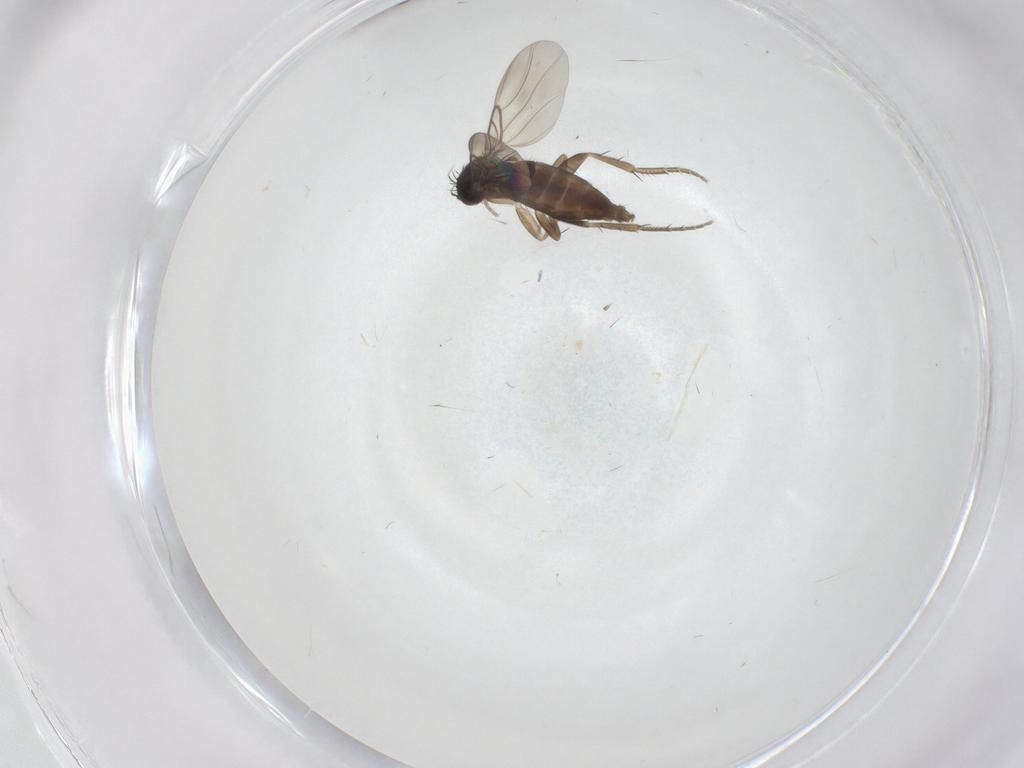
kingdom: Animalia
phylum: Arthropoda
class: Insecta
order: Diptera
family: Phoridae
